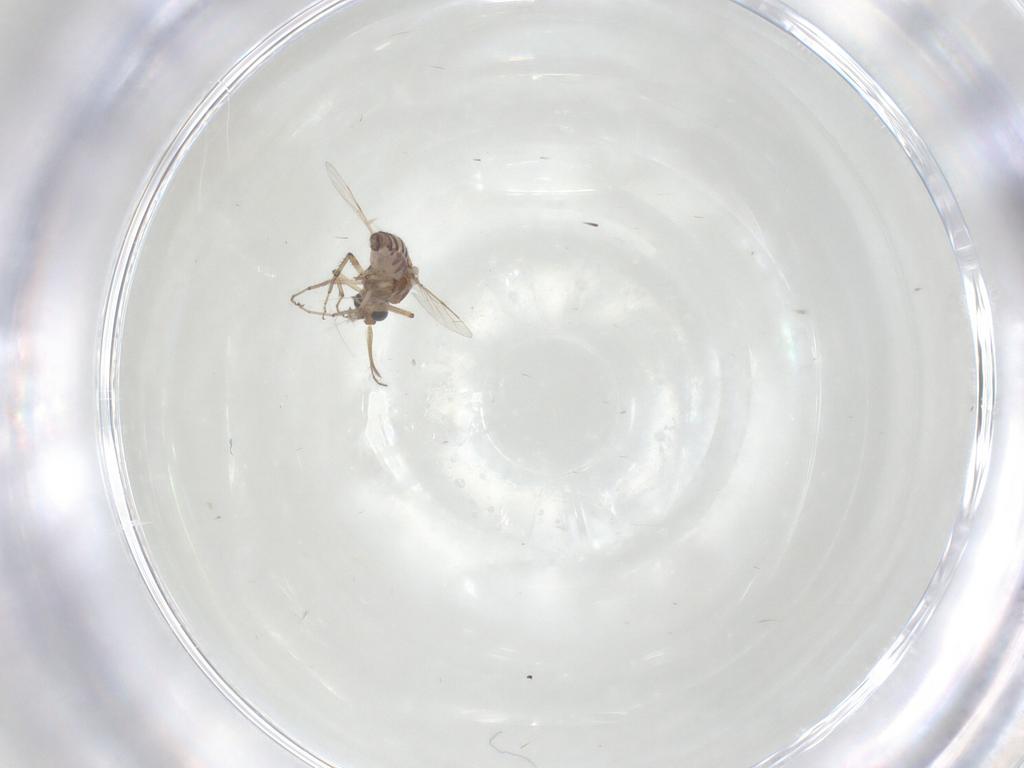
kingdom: Animalia
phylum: Arthropoda
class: Insecta
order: Diptera
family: Ceratopogonidae
